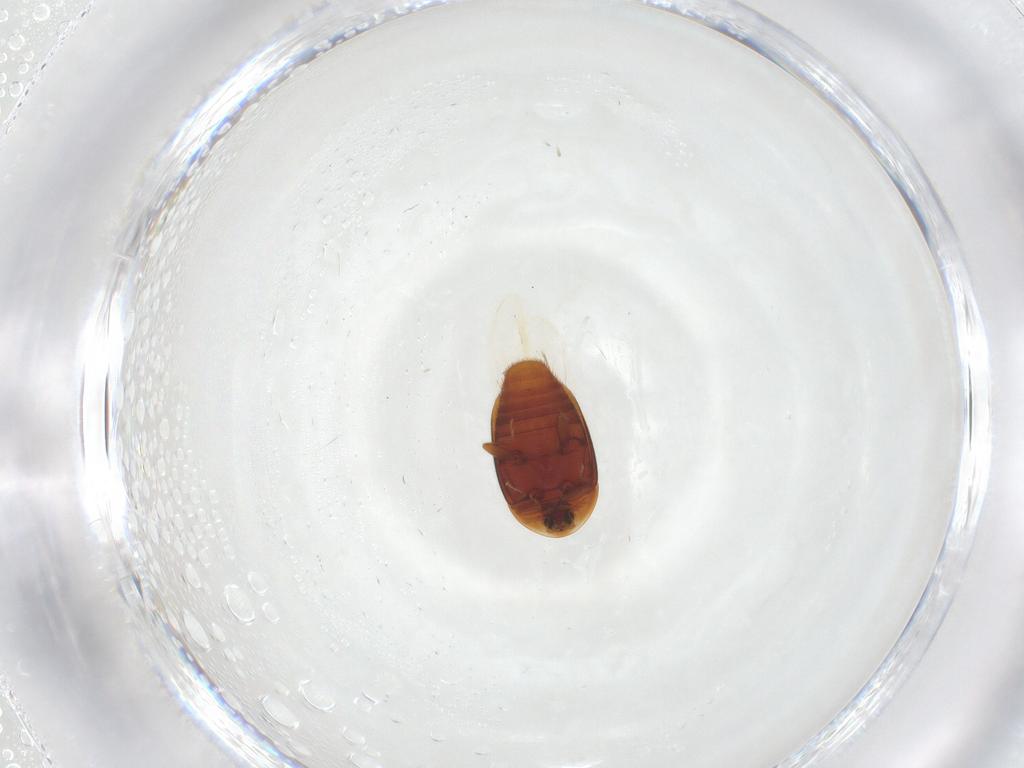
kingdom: Animalia
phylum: Arthropoda
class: Insecta
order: Coleoptera
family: Corylophidae
